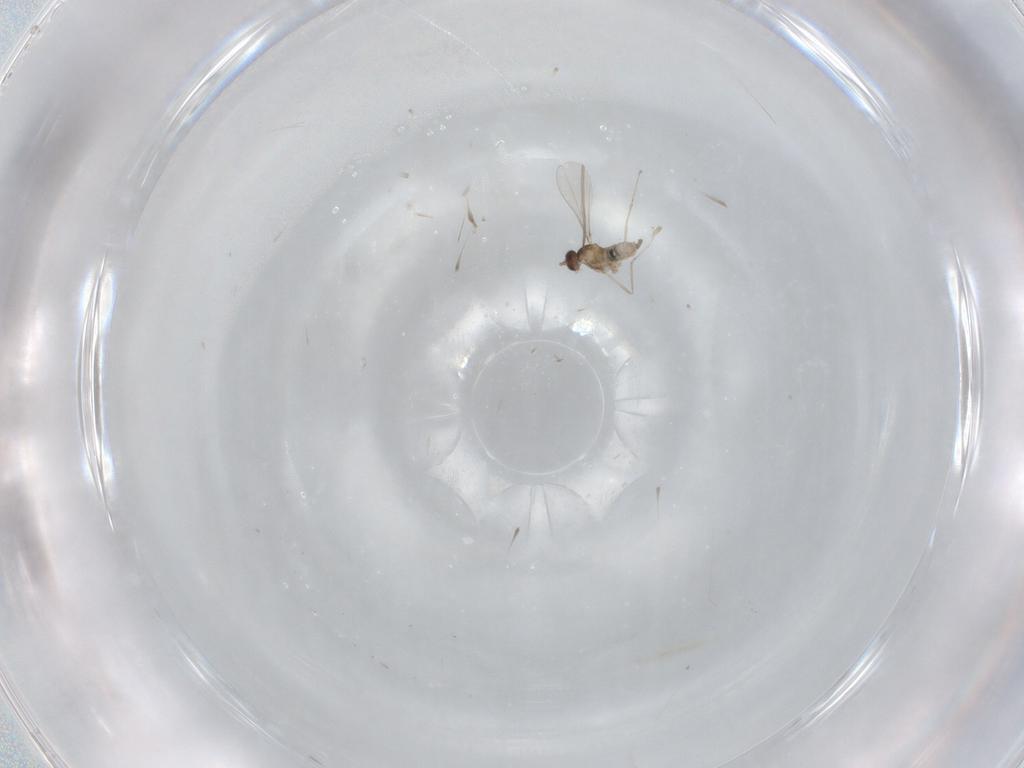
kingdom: Animalia
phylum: Arthropoda
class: Insecta
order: Diptera
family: Cecidomyiidae
